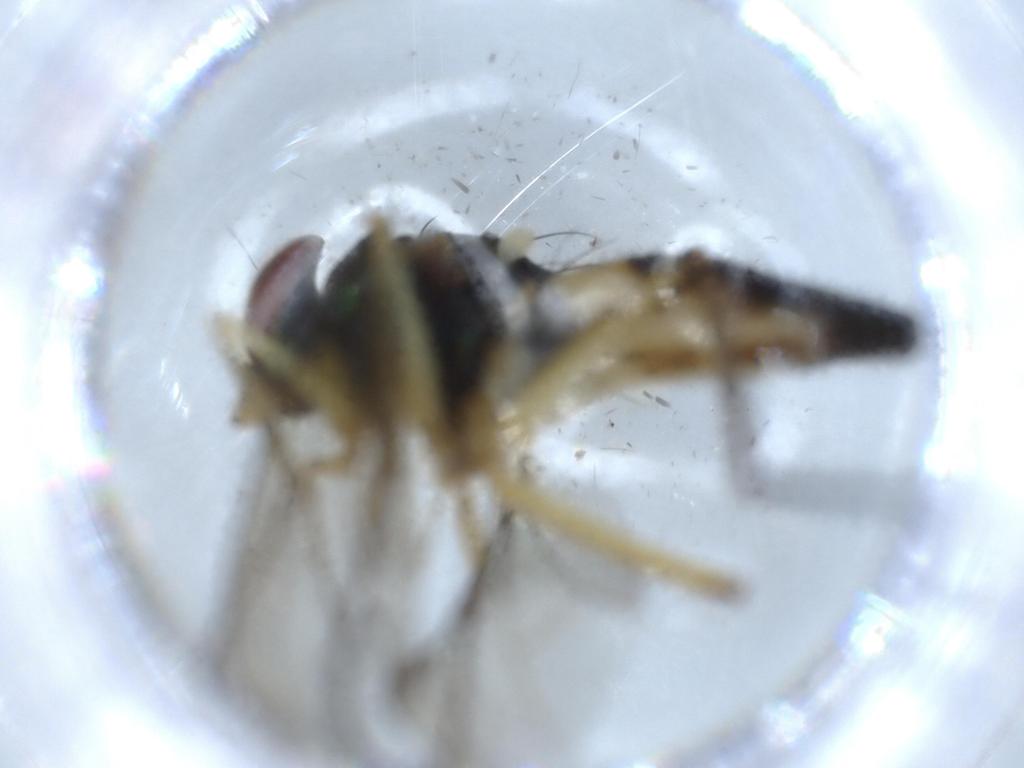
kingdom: Animalia
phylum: Arthropoda
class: Insecta
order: Diptera
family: Dolichopodidae
